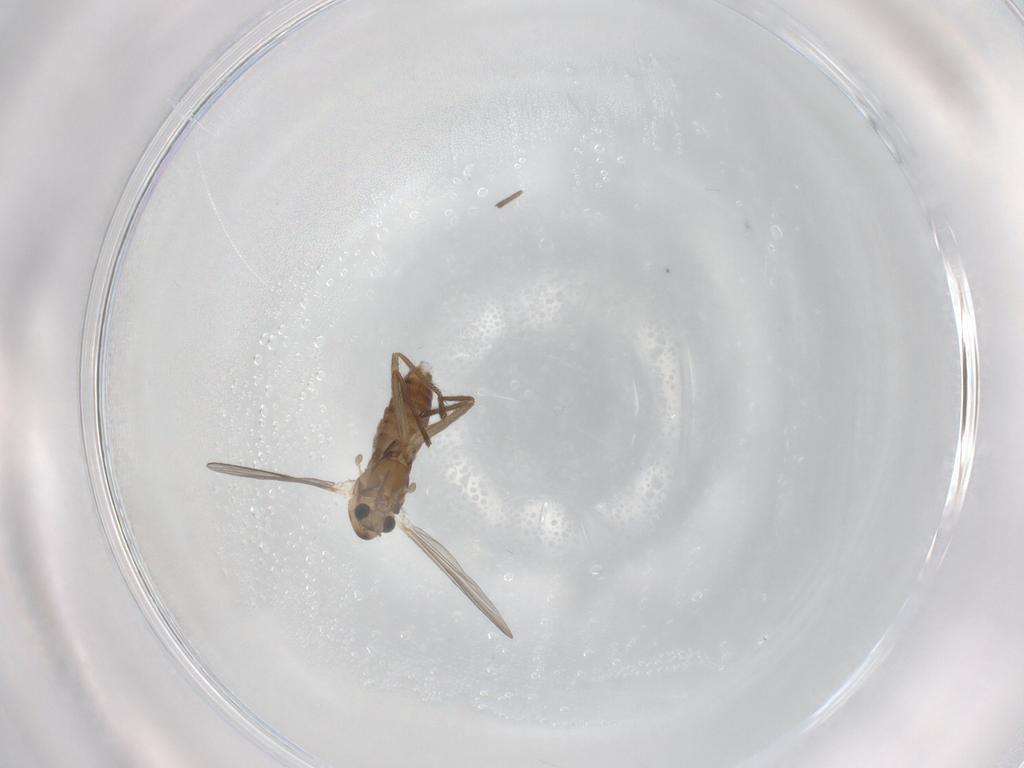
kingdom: Animalia
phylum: Arthropoda
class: Insecta
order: Diptera
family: Chironomidae
